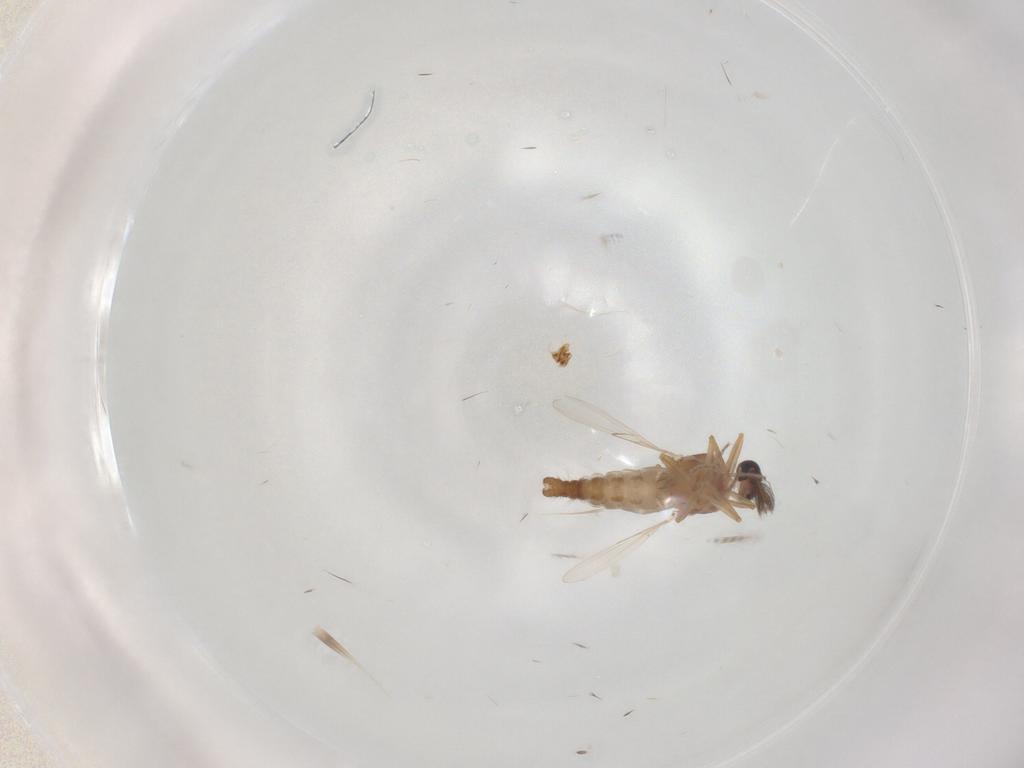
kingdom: Animalia
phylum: Arthropoda
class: Insecta
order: Diptera
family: Ceratopogonidae
